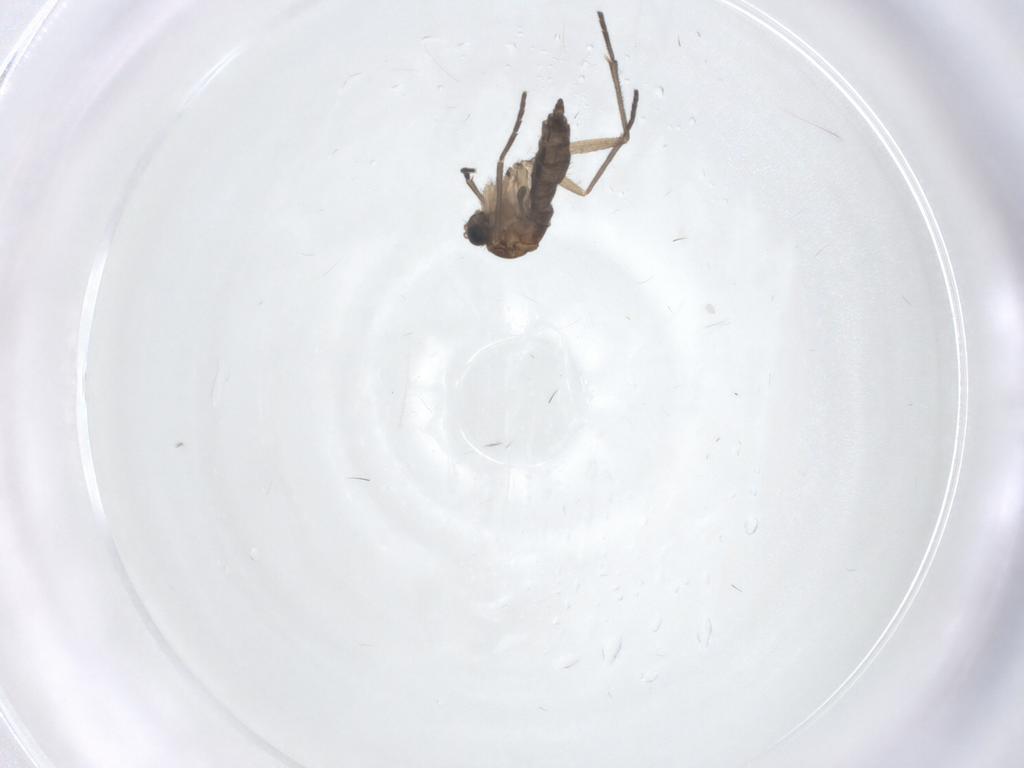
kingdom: Animalia
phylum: Arthropoda
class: Insecta
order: Diptera
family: Sciaridae
